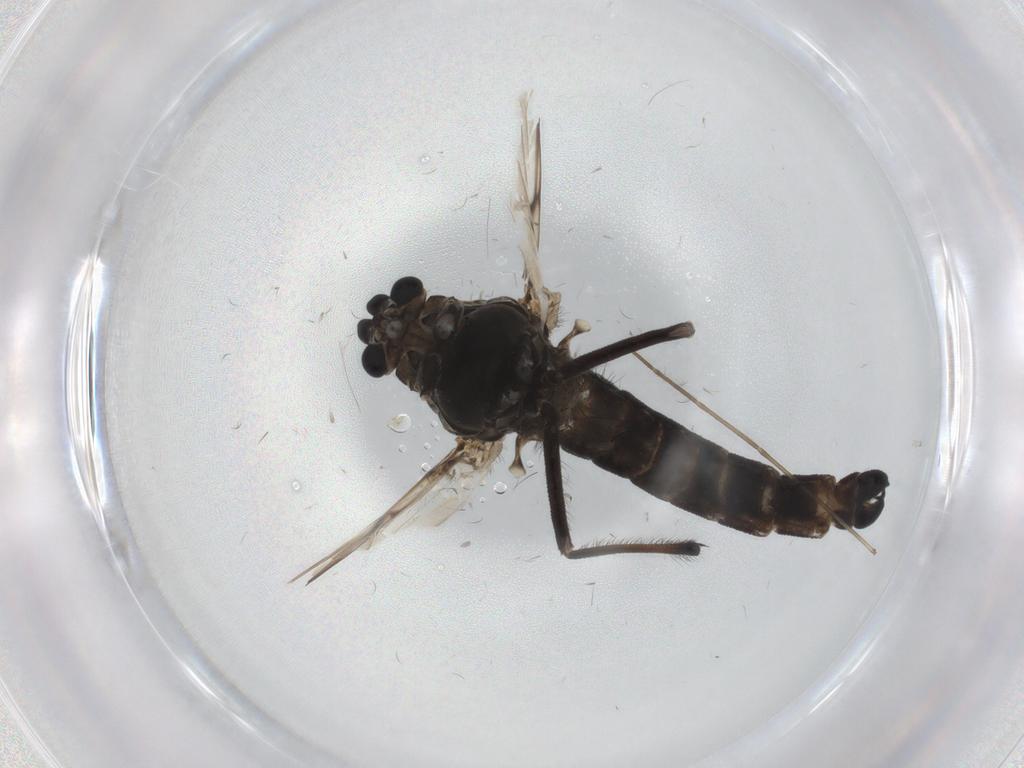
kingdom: Animalia
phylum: Arthropoda
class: Insecta
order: Diptera
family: Chironomidae
